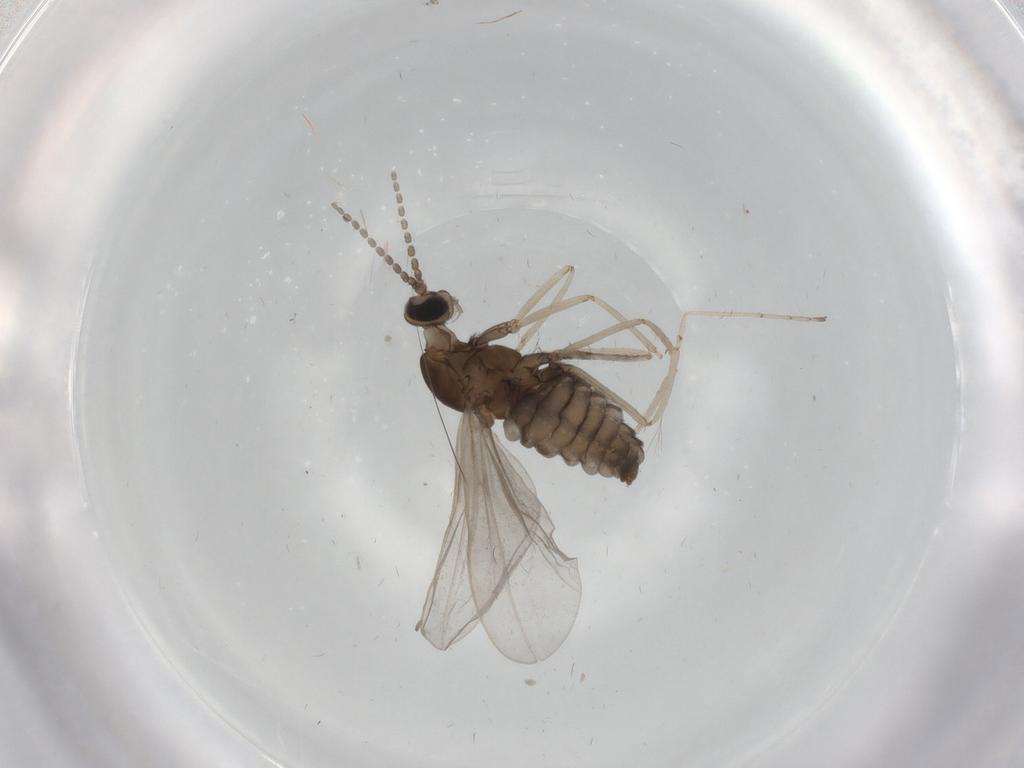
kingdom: Animalia
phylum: Arthropoda
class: Insecta
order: Diptera
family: Cecidomyiidae
